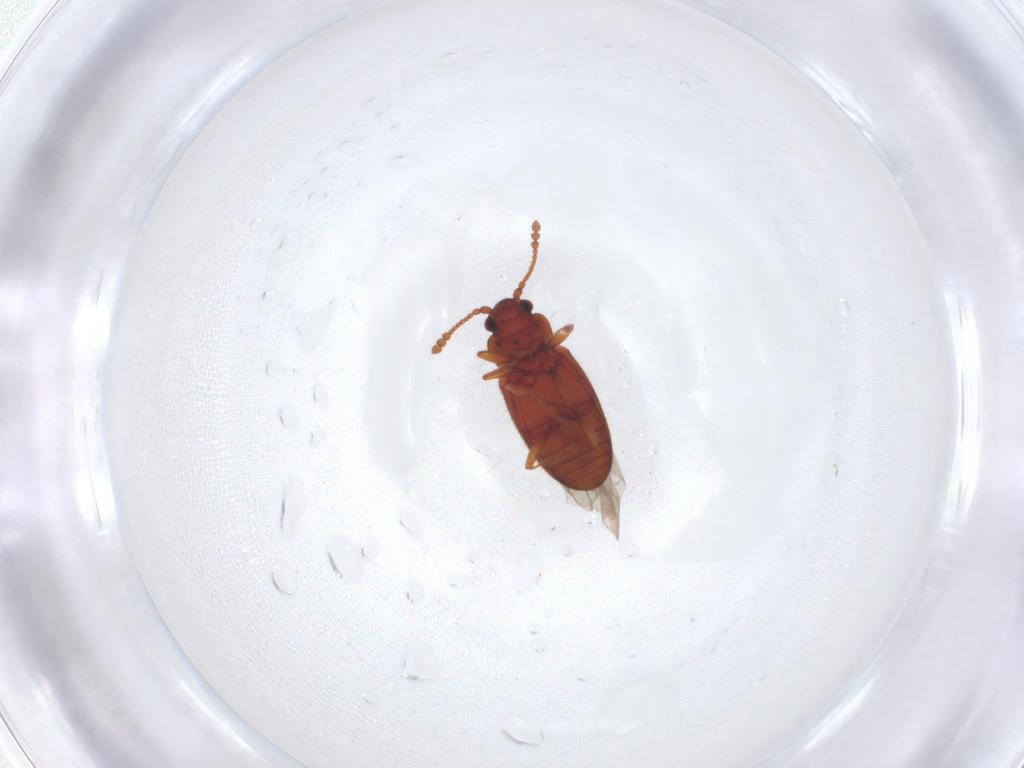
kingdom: Animalia
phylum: Arthropoda
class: Insecta
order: Coleoptera
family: Cryptophagidae
